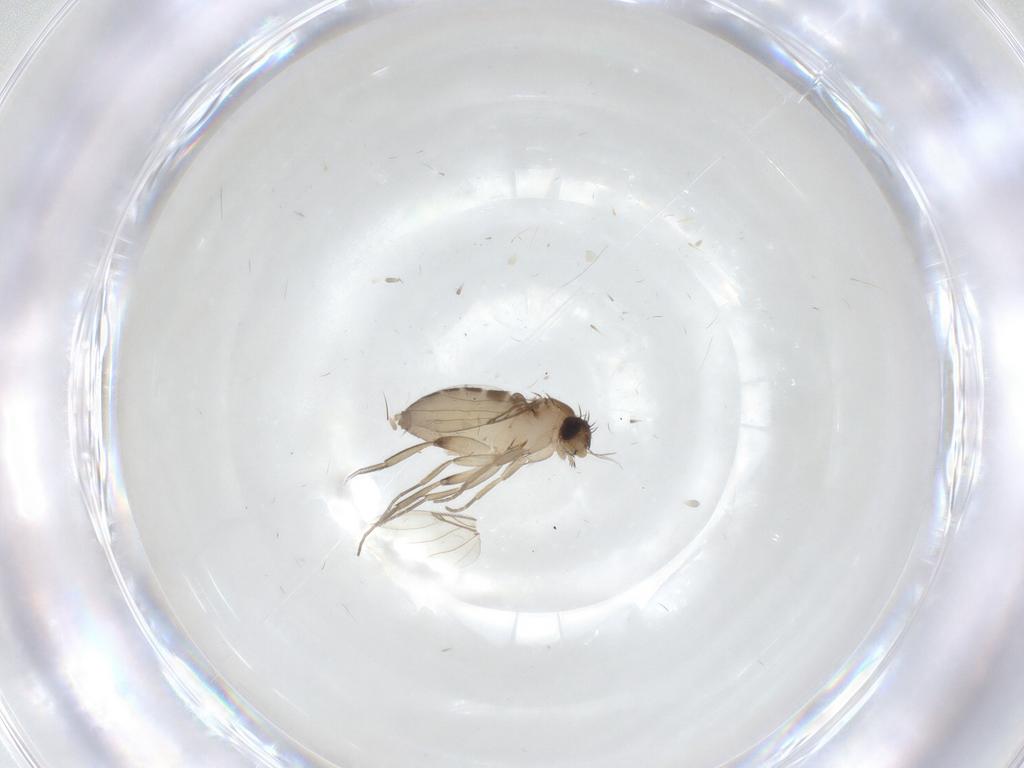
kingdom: Animalia
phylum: Arthropoda
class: Insecta
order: Diptera
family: Phoridae
